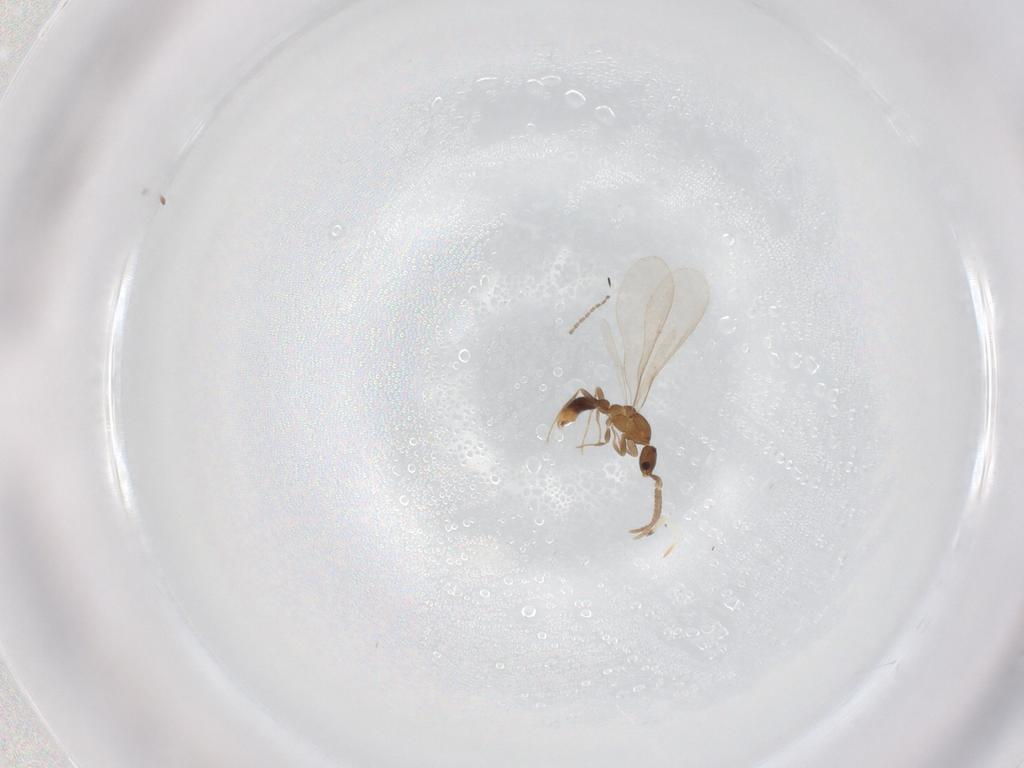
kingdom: Animalia
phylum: Arthropoda
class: Insecta
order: Hymenoptera
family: Formicidae
